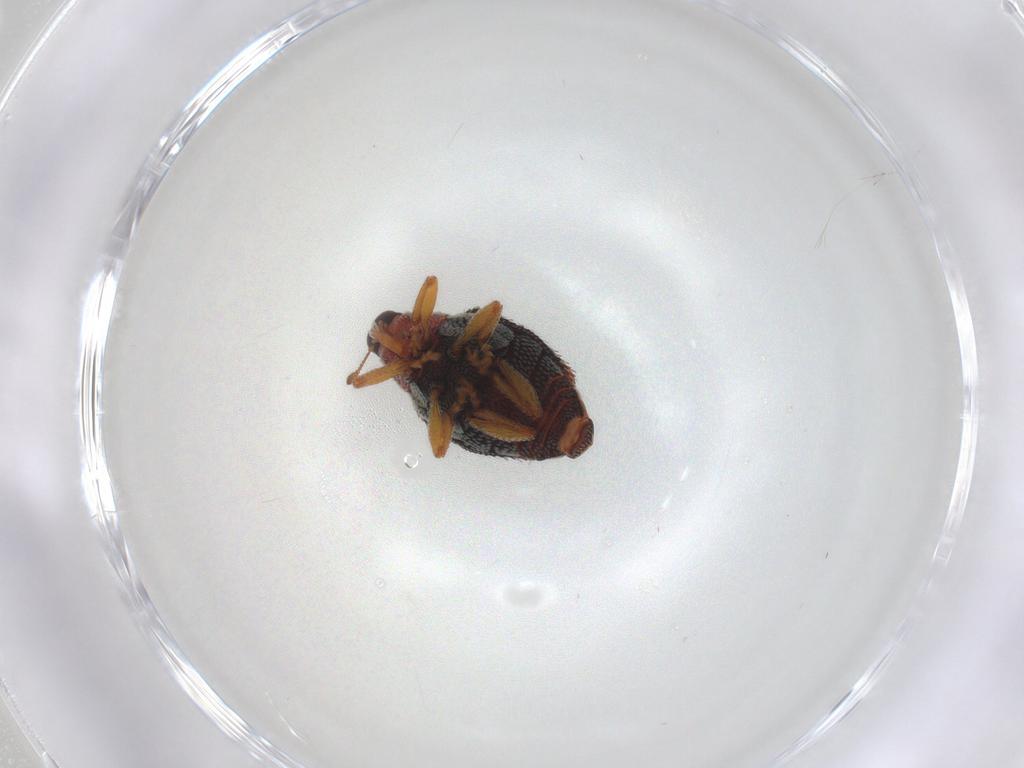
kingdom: Animalia
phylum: Arthropoda
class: Insecta
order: Coleoptera
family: Curculionidae
